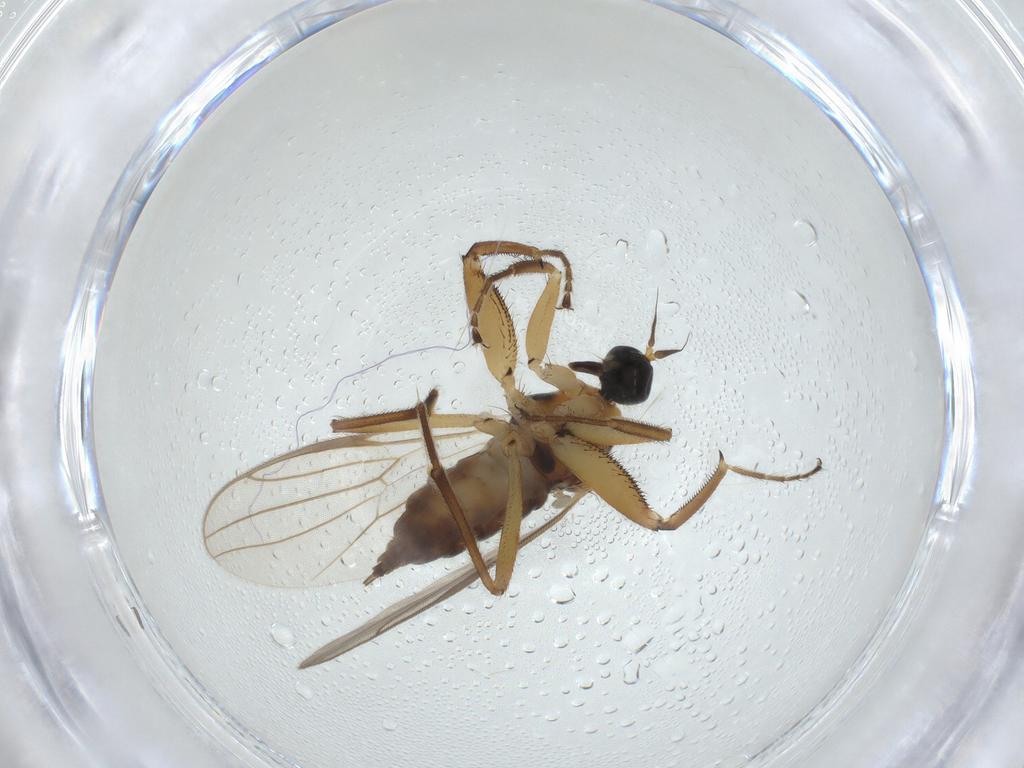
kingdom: Animalia
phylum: Arthropoda
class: Insecta
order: Diptera
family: Hybotidae
